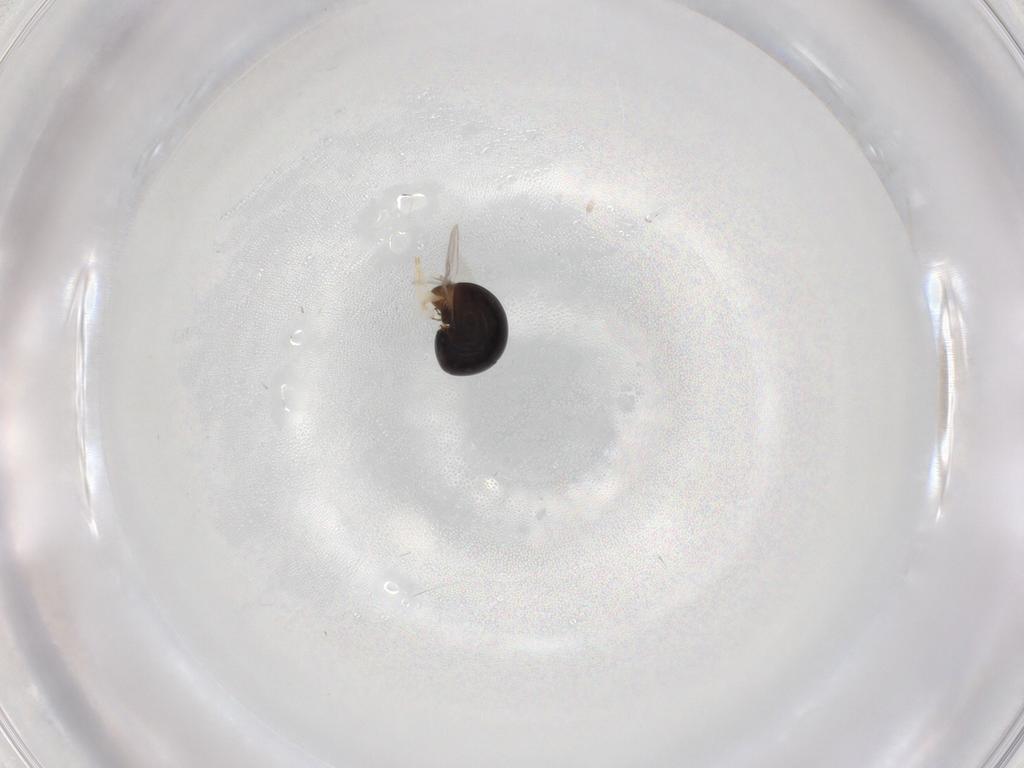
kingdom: Animalia
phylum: Arthropoda
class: Insecta
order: Coleoptera
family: Cybocephalidae
